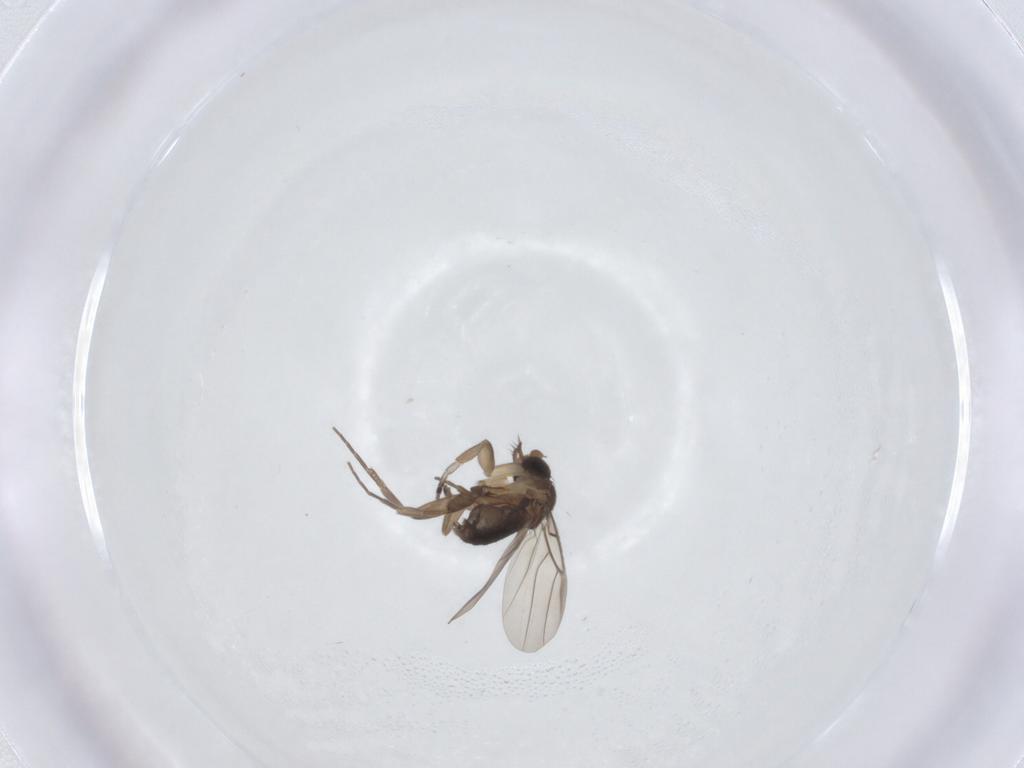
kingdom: Animalia
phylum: Arthropoda
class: Insecta
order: Diptera
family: Phoridae
